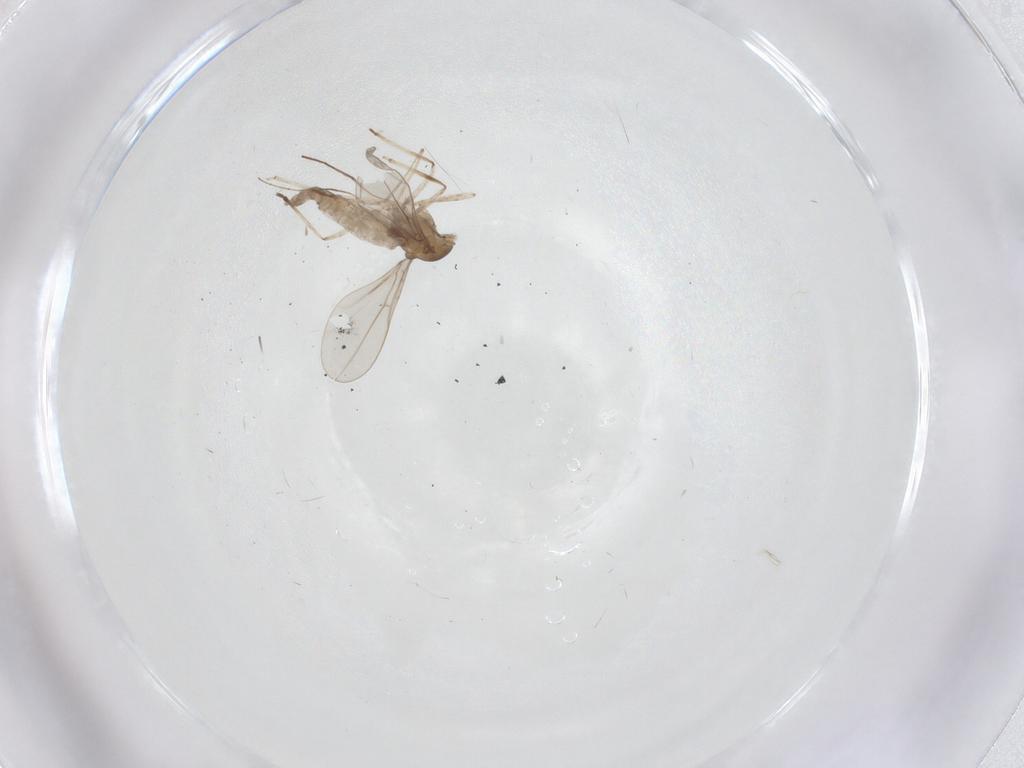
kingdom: Animalia
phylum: Arthropoda
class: Insecta
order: Diptera
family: Cecidomyiidae
